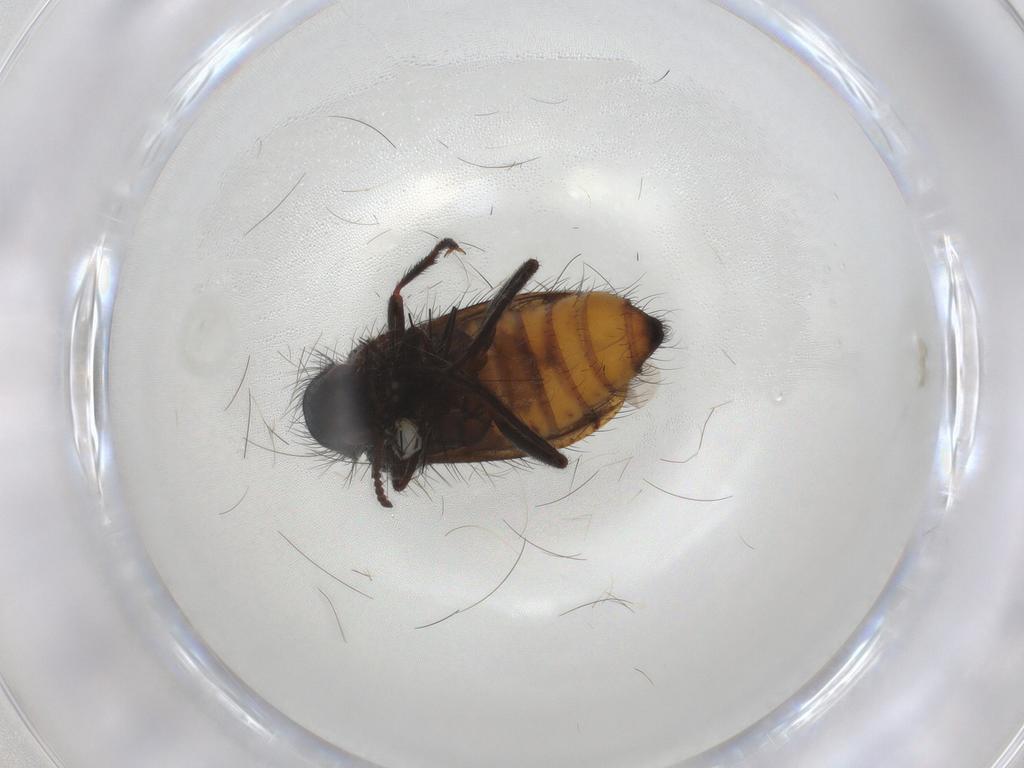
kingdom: Animalia
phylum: Arthropoda
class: Insecta
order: Coleoptera
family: Melyridae
